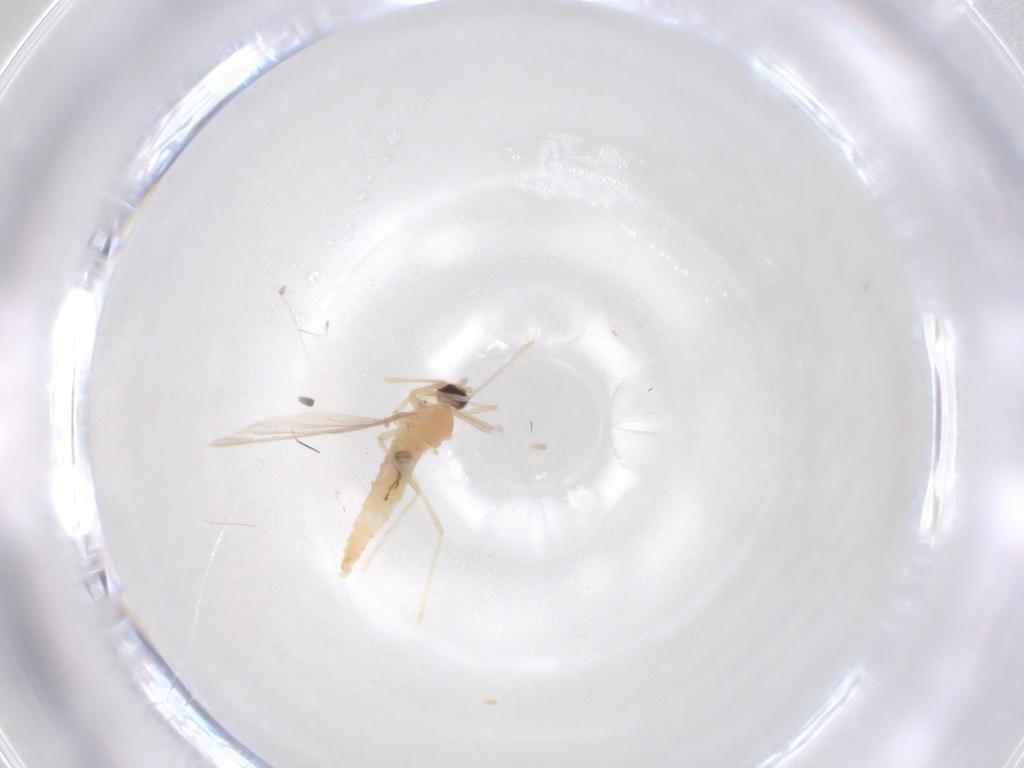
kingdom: Animalia
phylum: Arthropoda
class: Insecta
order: Diptera
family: Cecidomyiidae
